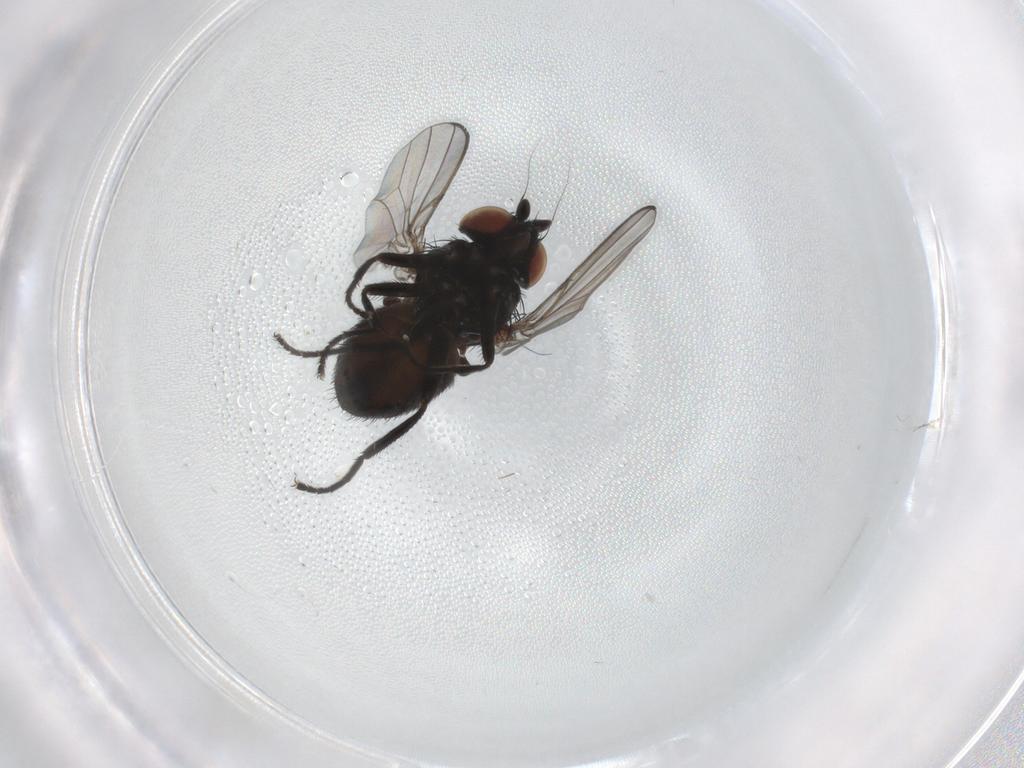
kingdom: Animalia
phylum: Arthropoda
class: Insecta
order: Diptera
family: Milichiidae
